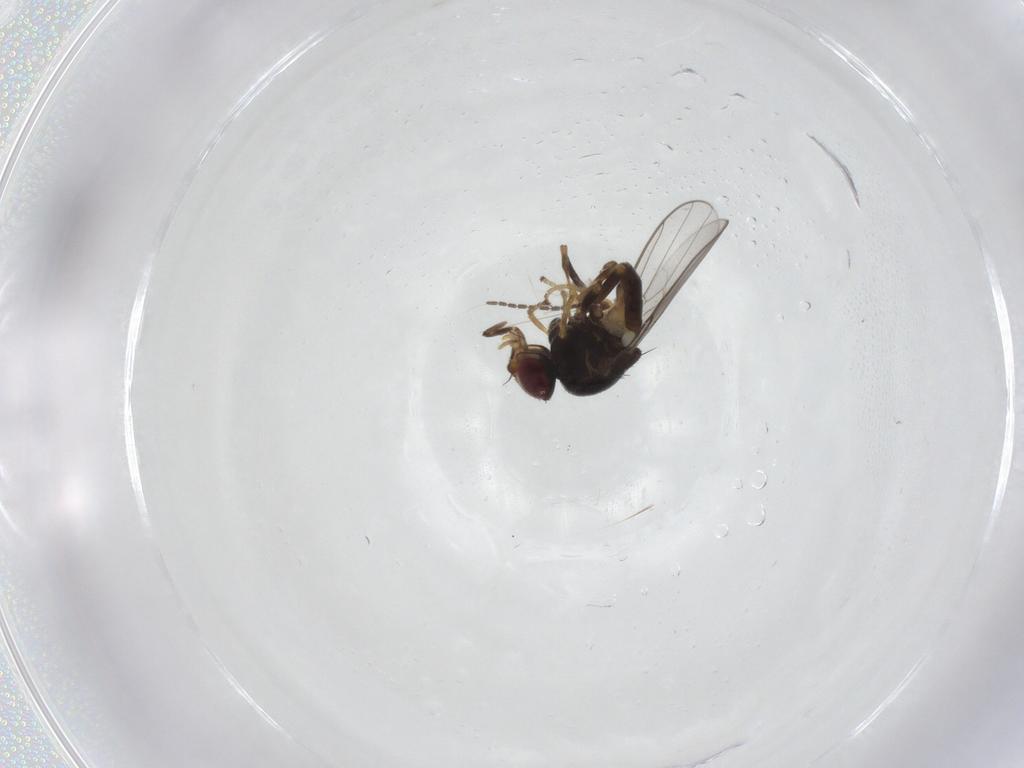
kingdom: Animalia
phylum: Arthropoda
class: Insecta
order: Diptera
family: Chloropidae
